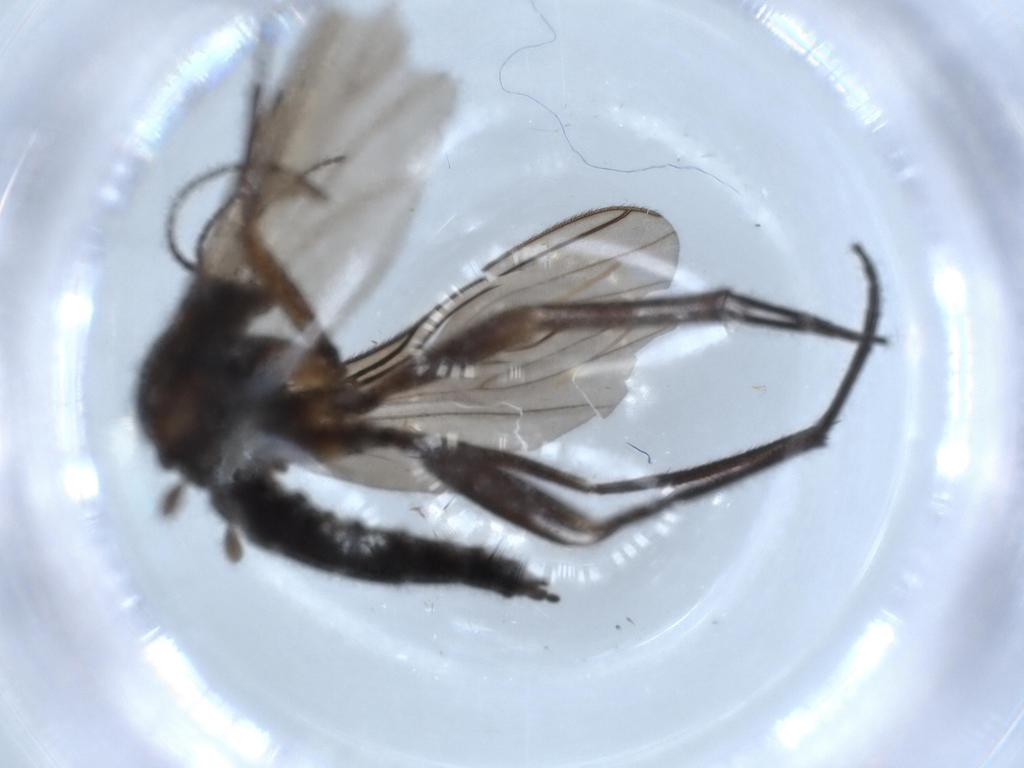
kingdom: Animalia
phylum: Arthropoda
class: Insecta
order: Diptera
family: Sciaridae
